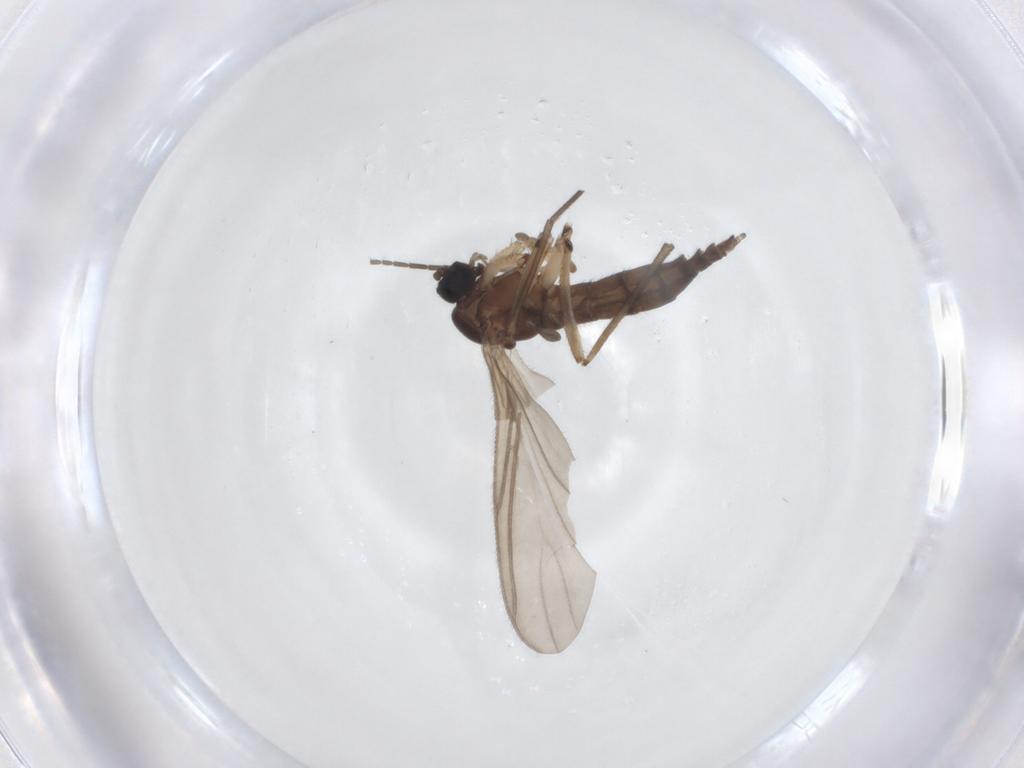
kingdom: Animalia
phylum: Arthropoda
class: Insecta
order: Diptera
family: Sciaridae
